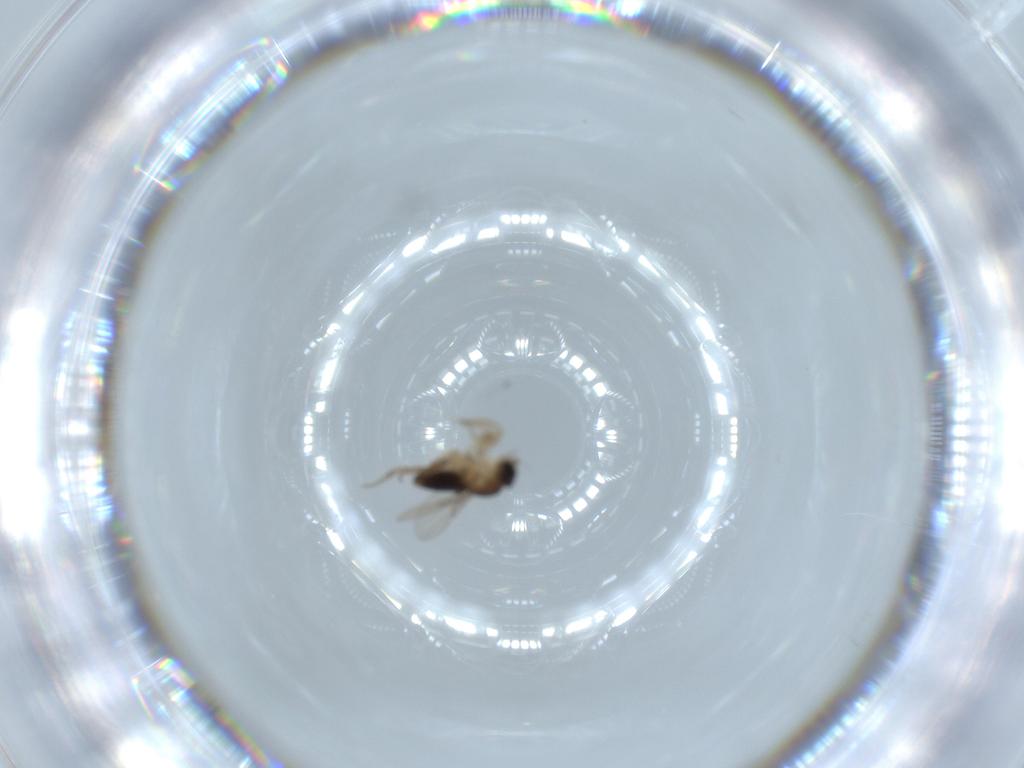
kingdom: Animalia
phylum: Arthropoda
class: Insecta
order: Diptera
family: Phoridae
